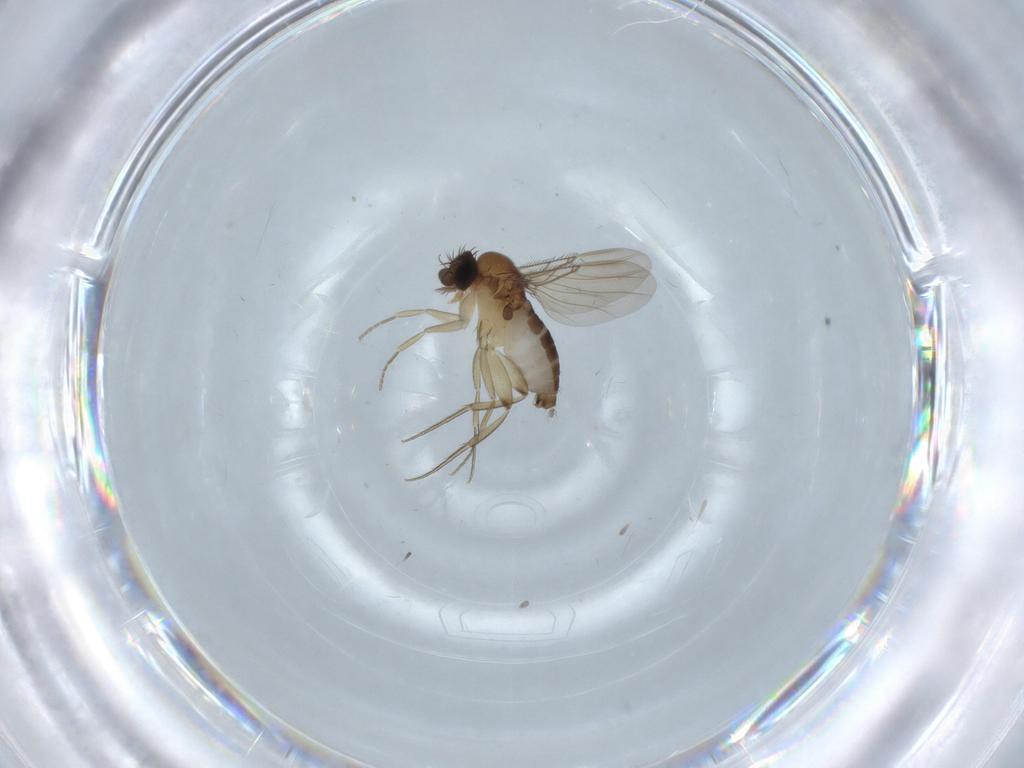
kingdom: Animalia
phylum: Arthropoda
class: Insecta
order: Diptera
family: Phoridae
